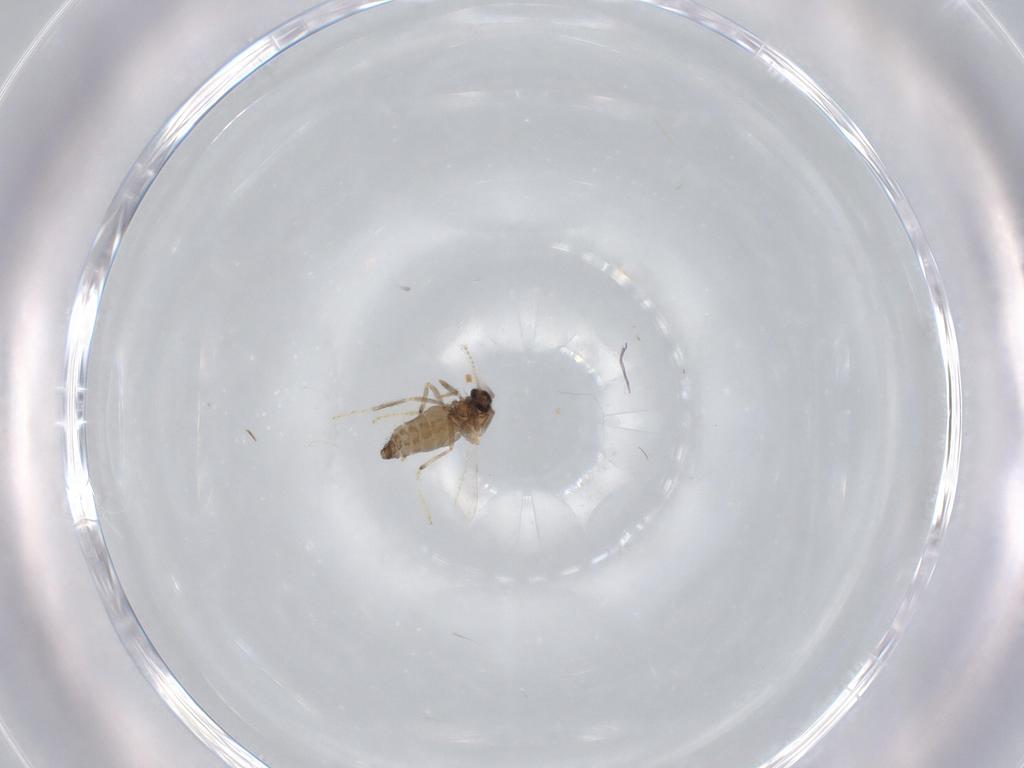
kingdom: Animalia
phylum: Arthropoda
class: Insecta
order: Diptera
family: Ceratopogonidae
